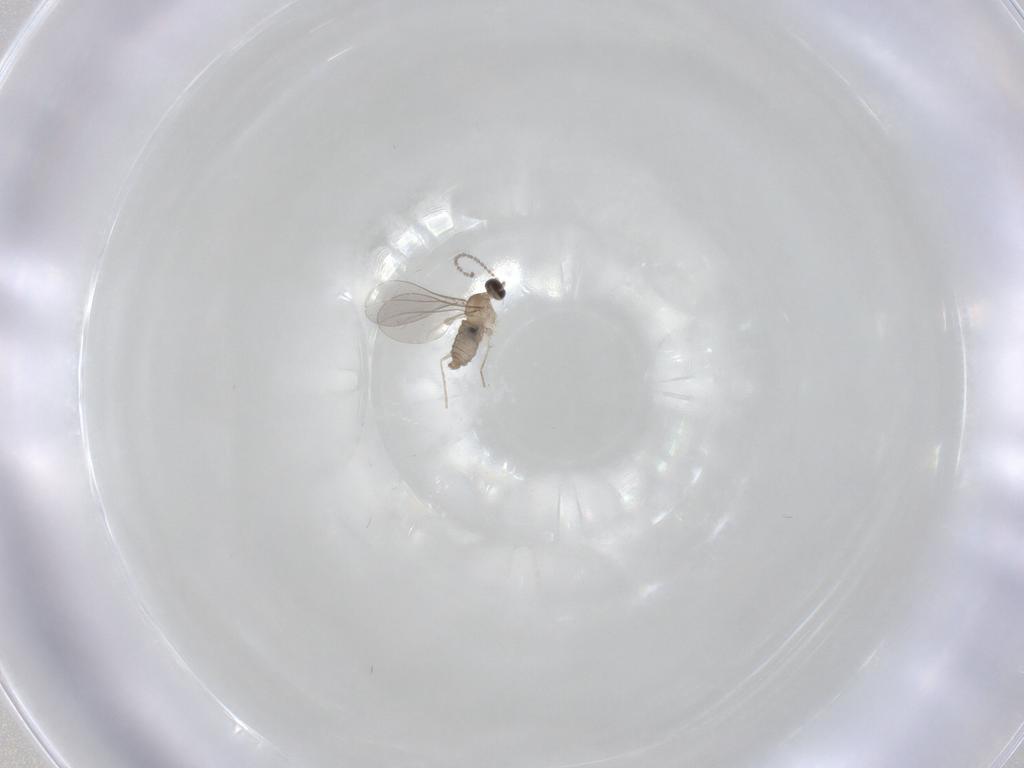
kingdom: Animalia
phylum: Arthropoda
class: Insecta
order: Diptera
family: Cecidomyiidae
